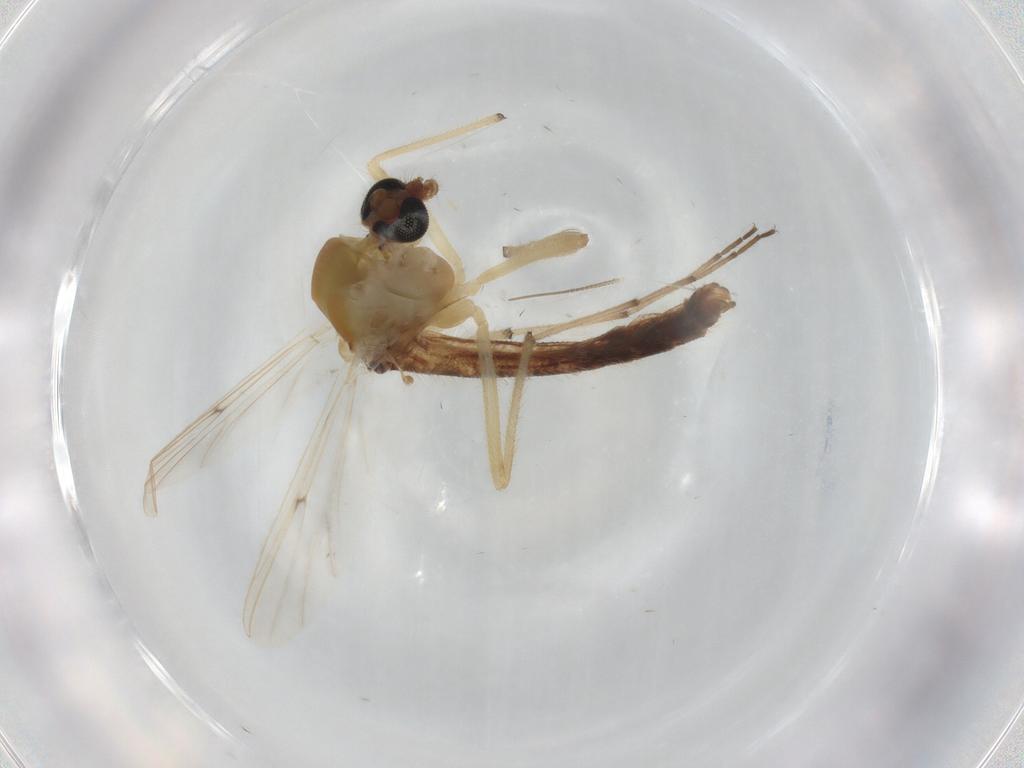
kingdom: Animalia
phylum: Arthropoda
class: Insecta
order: Diptera
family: Chironomidae
